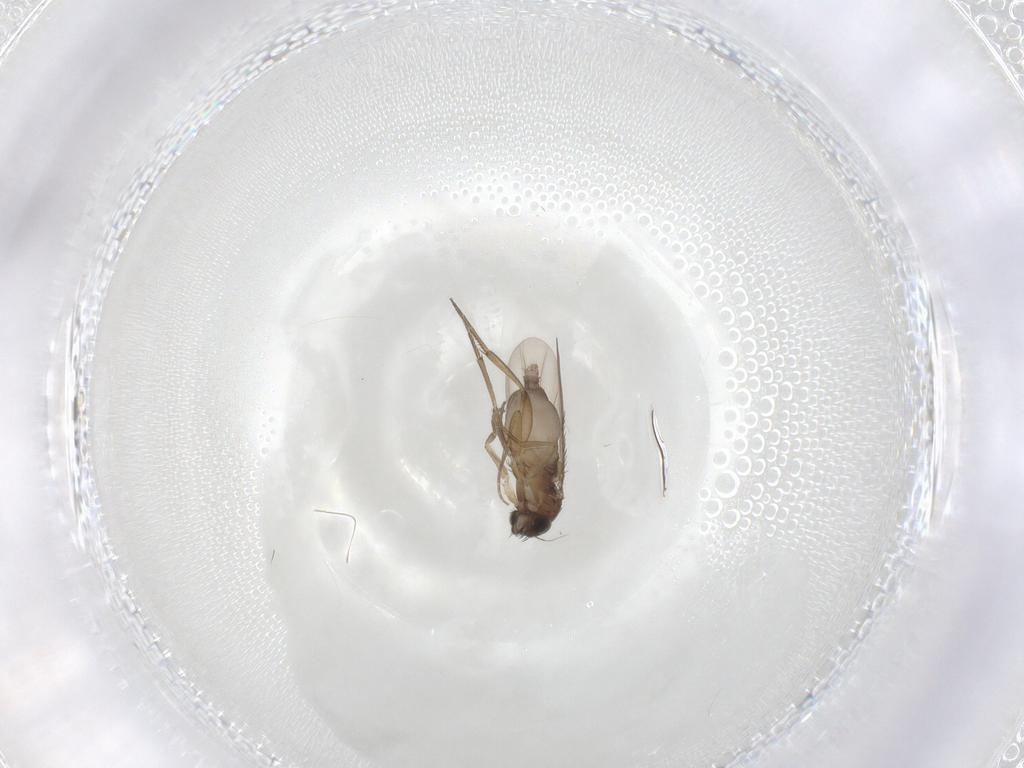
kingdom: Animalia
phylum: Arthropoda
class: Insecta
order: Diptera
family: Phoridae
